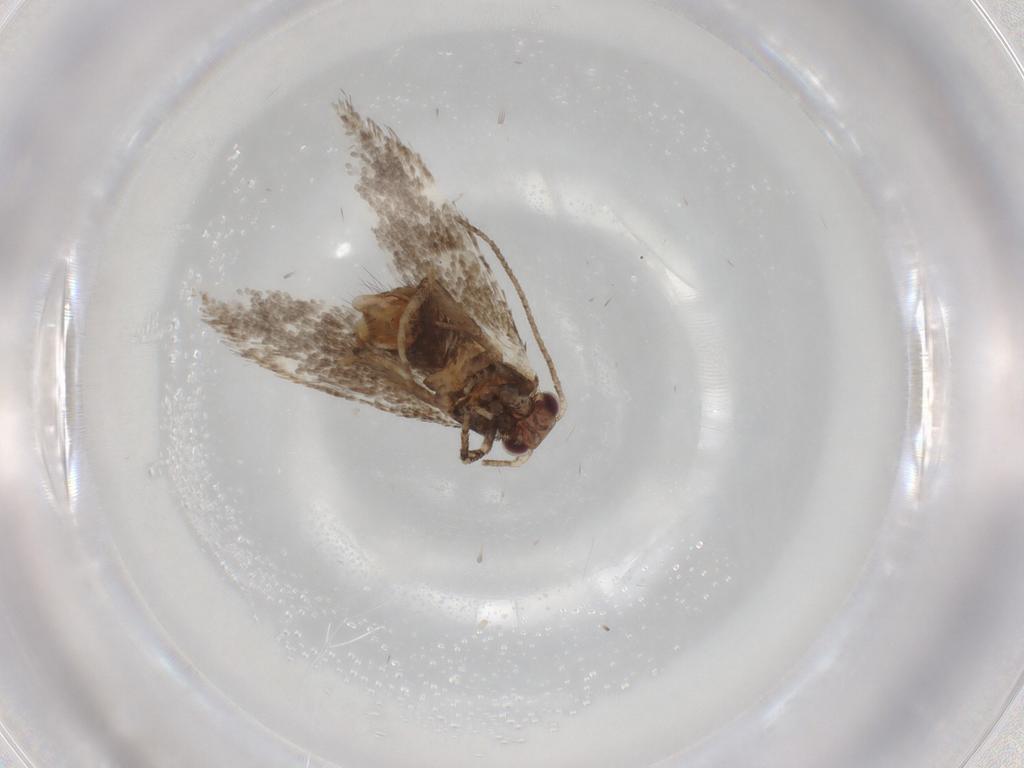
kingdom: Animalia
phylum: Arthropoda
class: Insecta
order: Lepidoptera
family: Tineidae
